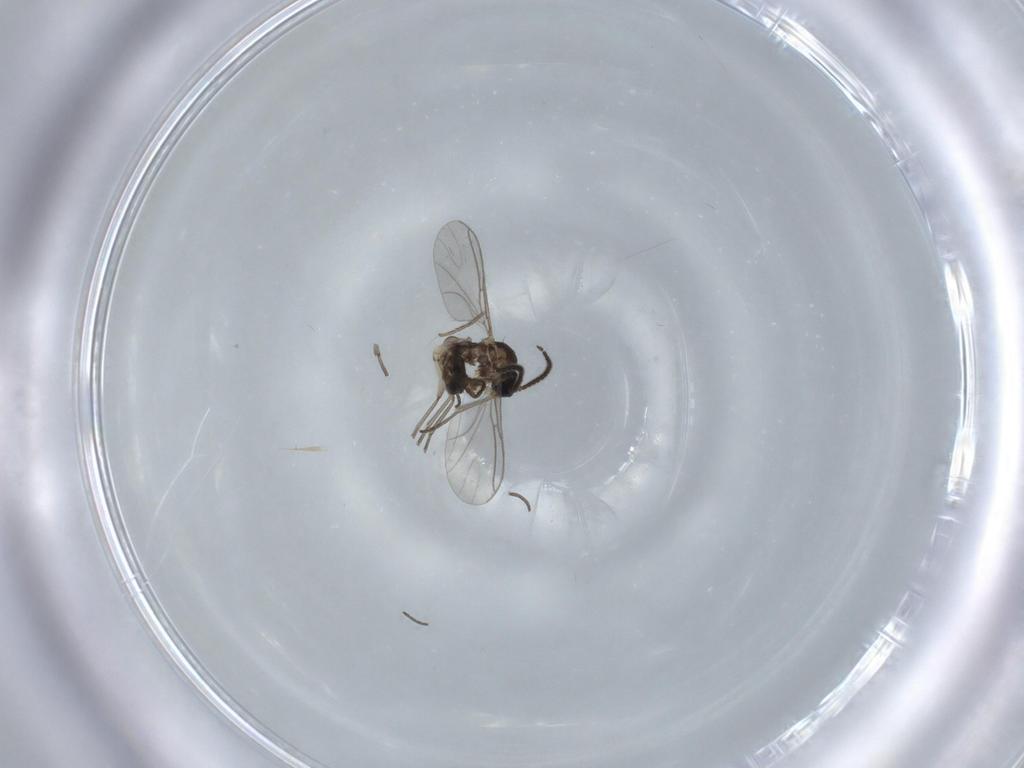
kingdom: Animalia
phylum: Arthropoda
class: Insecta
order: Diptera
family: Sciaridae
